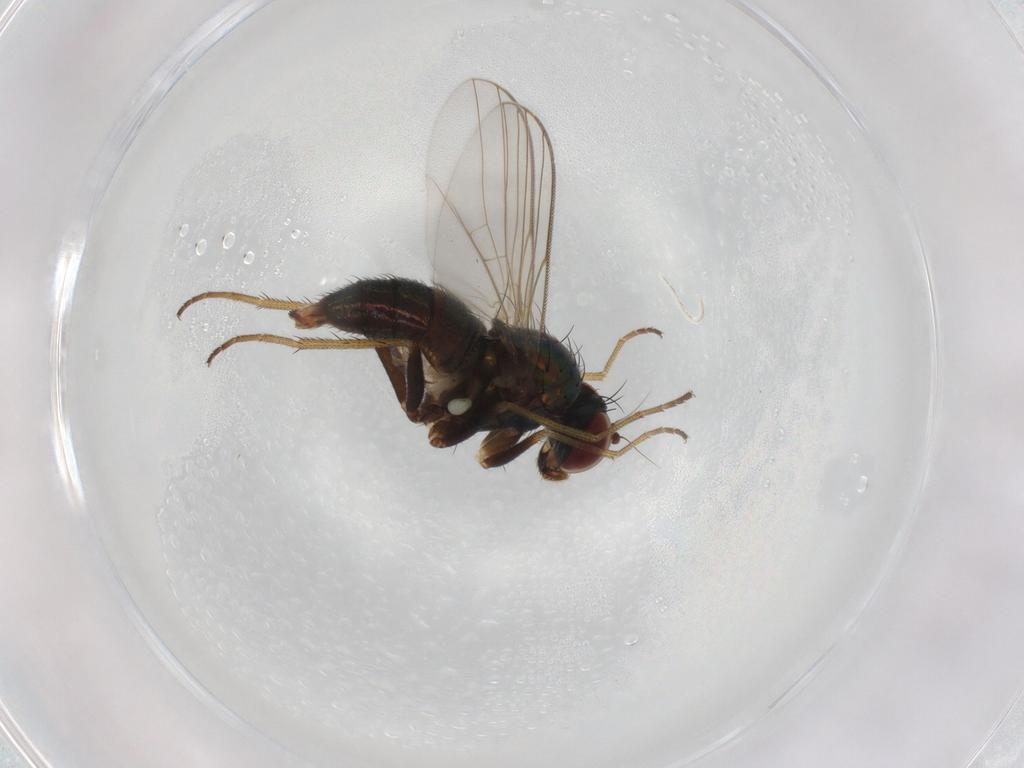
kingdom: Animalia
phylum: Arthropoda
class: Insecta
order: Diptera
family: Dolichopodidae
